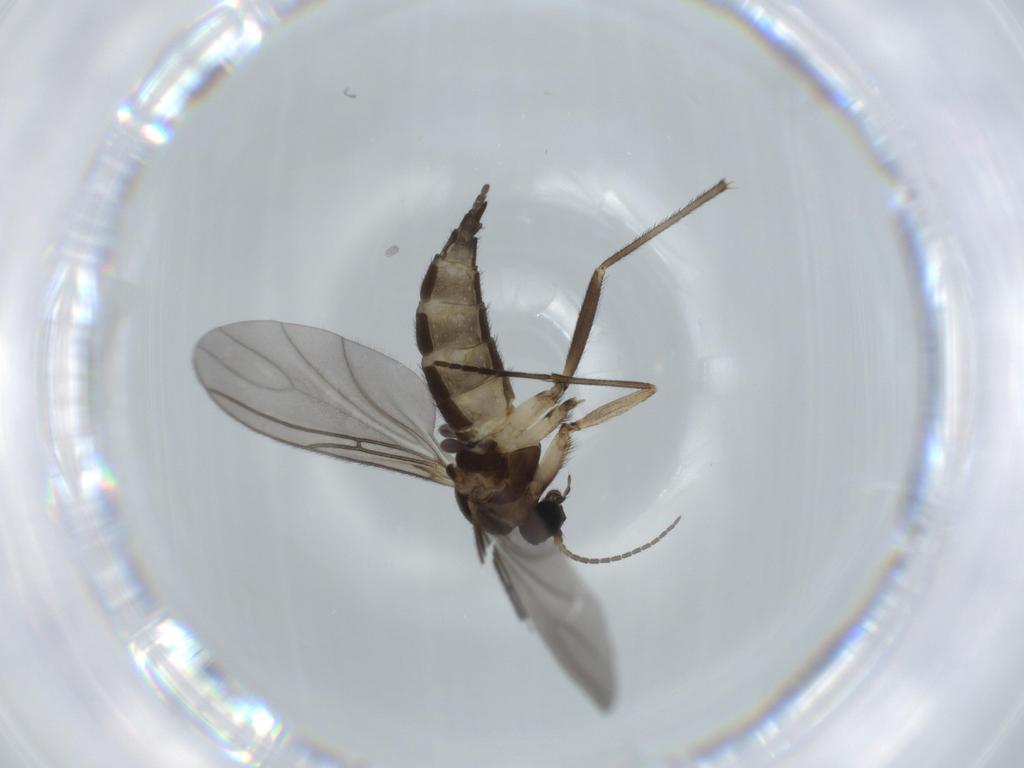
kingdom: Animalia
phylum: Arthropoda
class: Insecta
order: Diptera
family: Sciaridae
